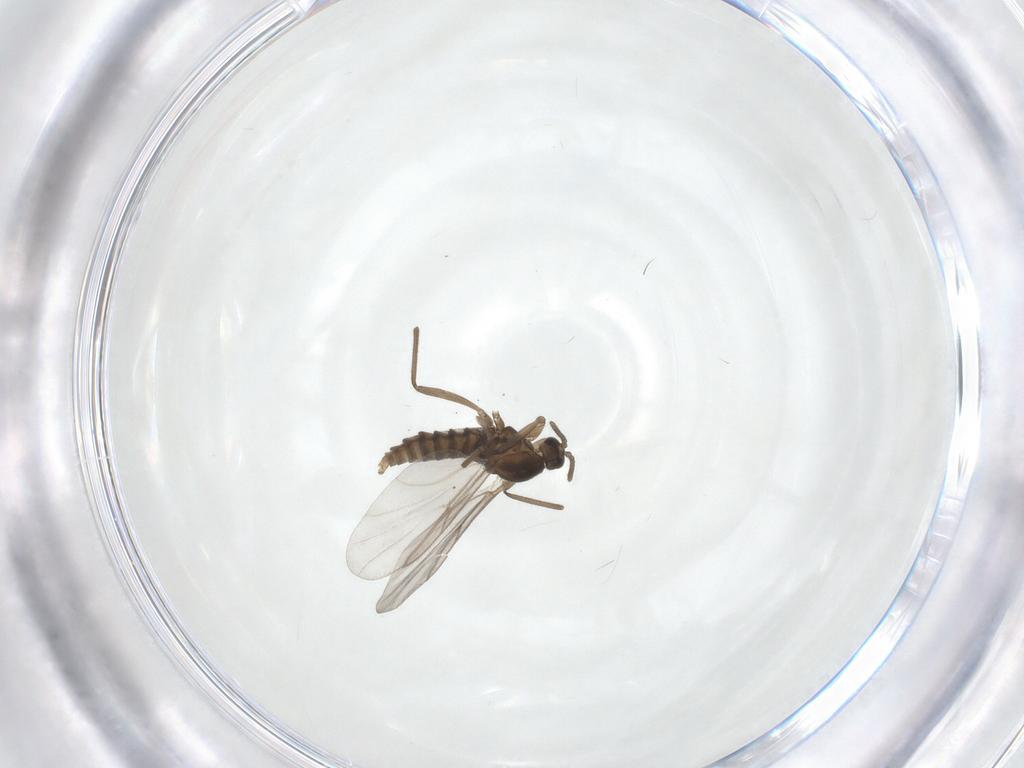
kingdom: Animalia
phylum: Arthropoda
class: Insecta
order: Diptera
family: Cecidomyiidae
